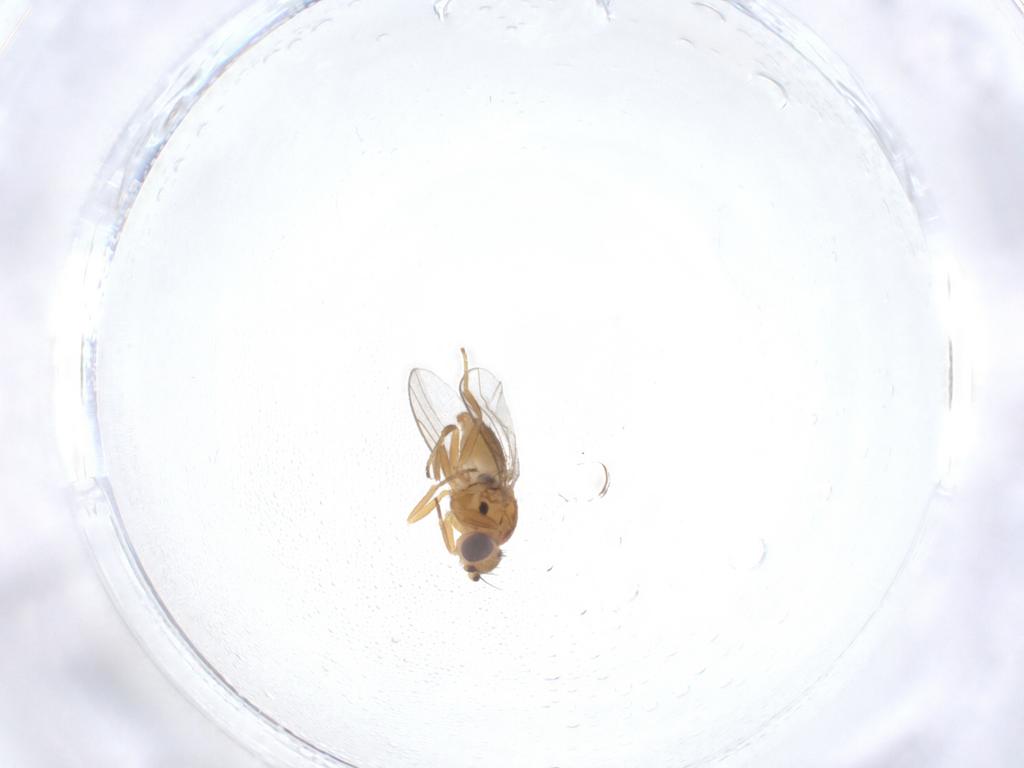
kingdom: Animalia
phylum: Arthropoda
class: Insecta
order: Diptera
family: Chloropidae
